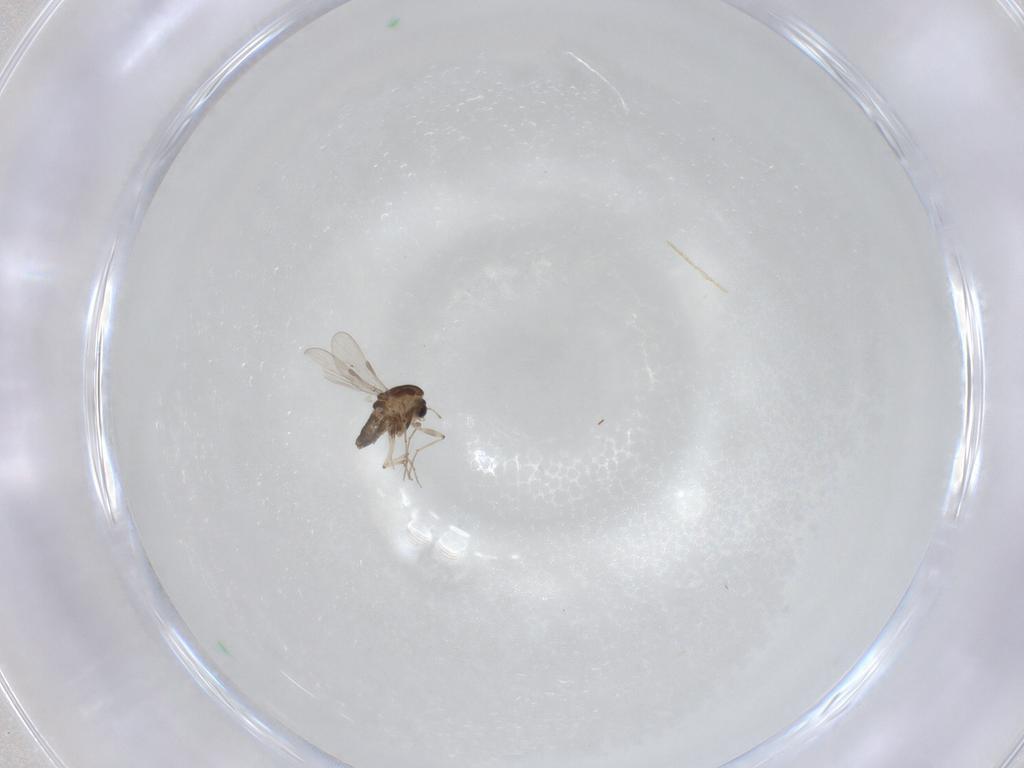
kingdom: Animalia
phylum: Arthropoda
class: Insecta
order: Diptera
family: Chironomidae
